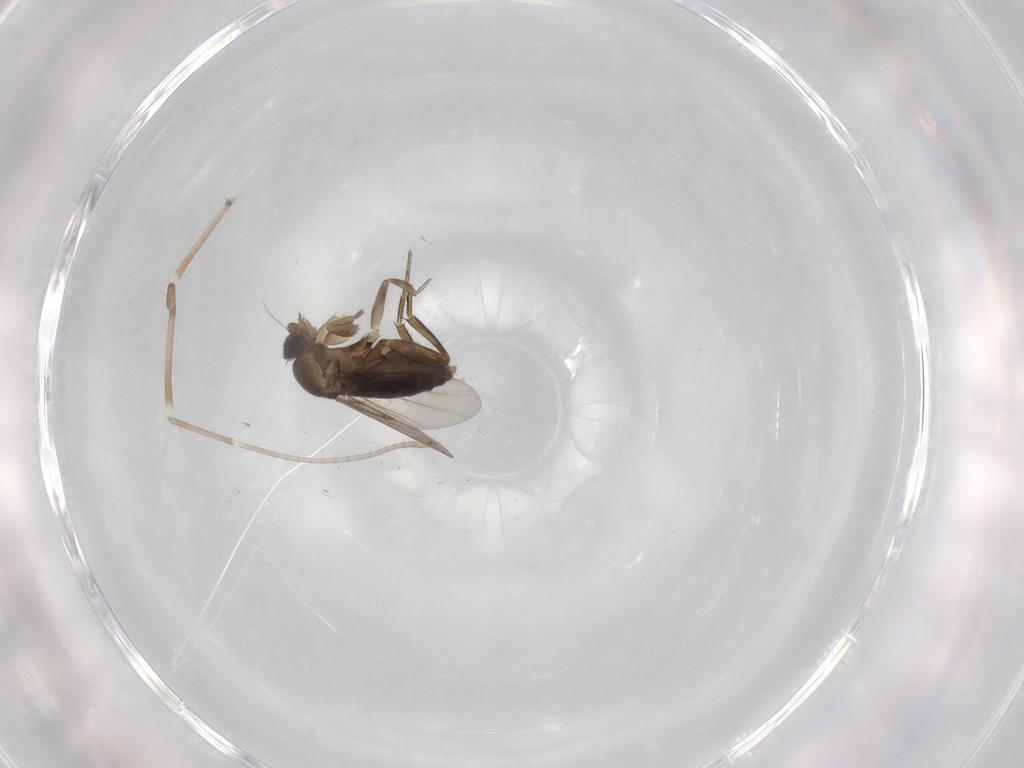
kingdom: Animalia
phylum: Arthropoda
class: Insecta
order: Diptera
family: Phoridae
